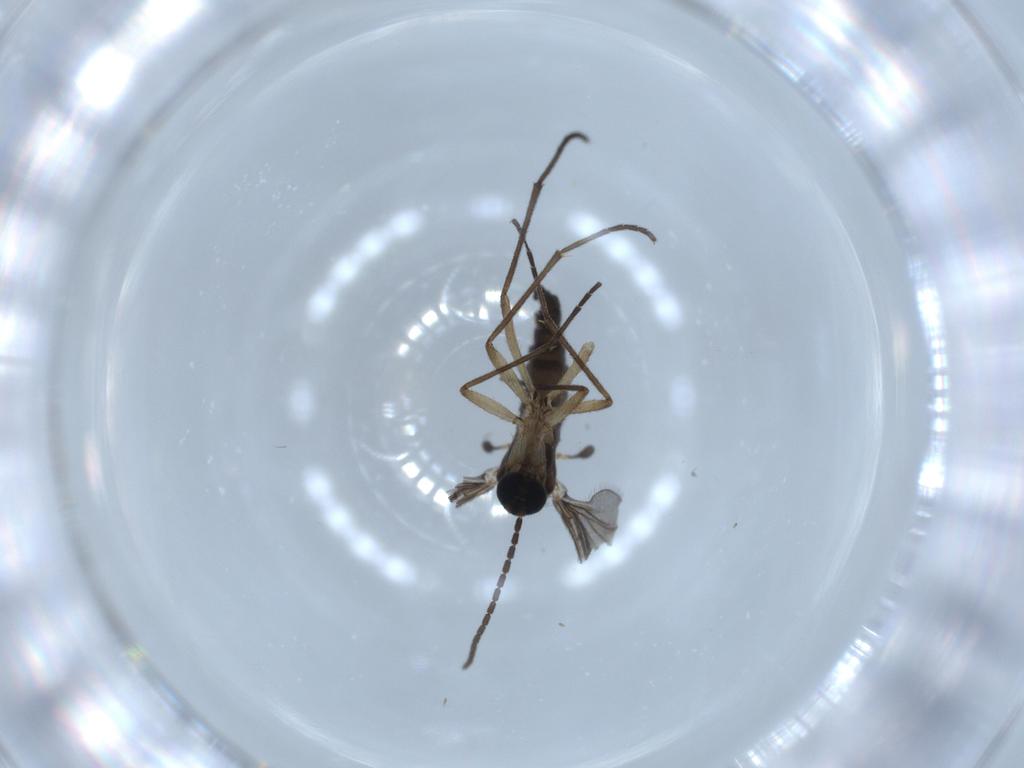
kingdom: Animalia
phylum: Arthropoda
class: Insecta
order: Diptera
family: Sciaridae
